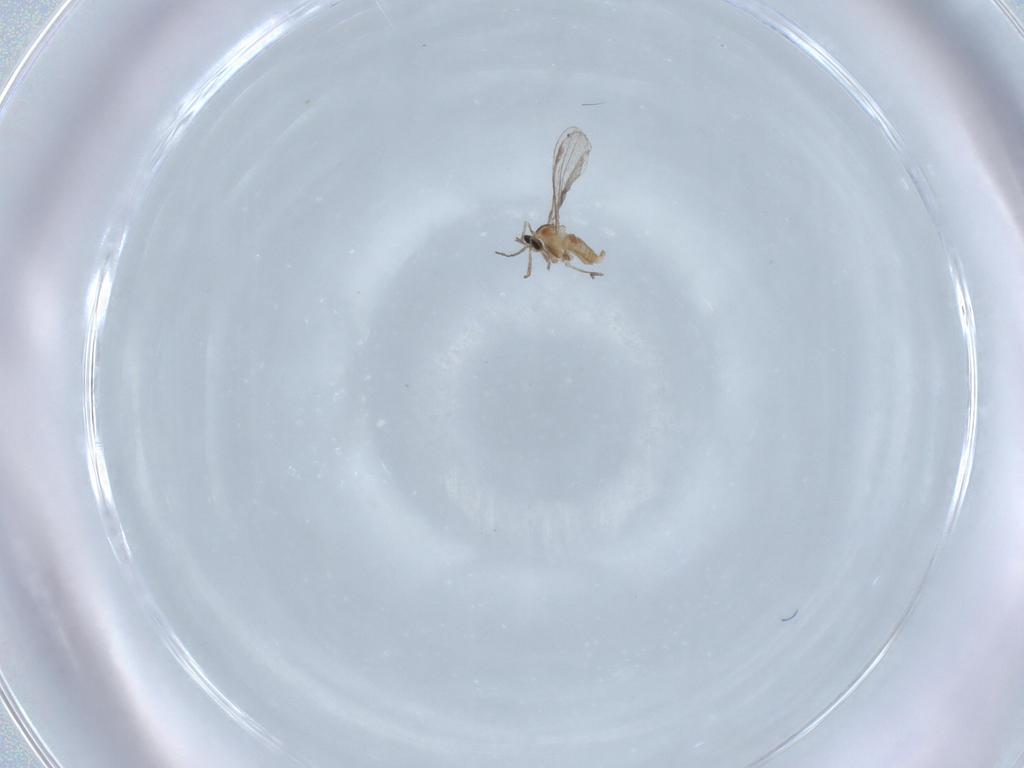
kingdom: Animalia
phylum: Arthropoda
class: Insecta
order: Diptera
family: Cecidomyiidae
